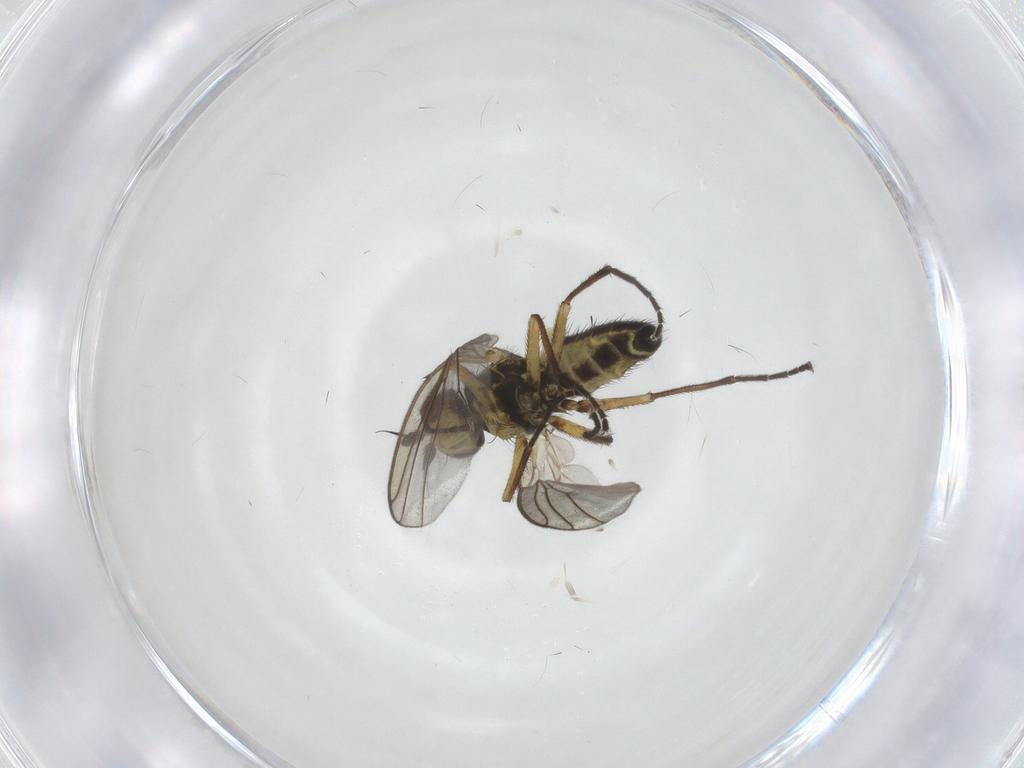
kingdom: Animalia
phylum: Arthropoda
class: Insecta
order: Diptera
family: Agromyzidae
